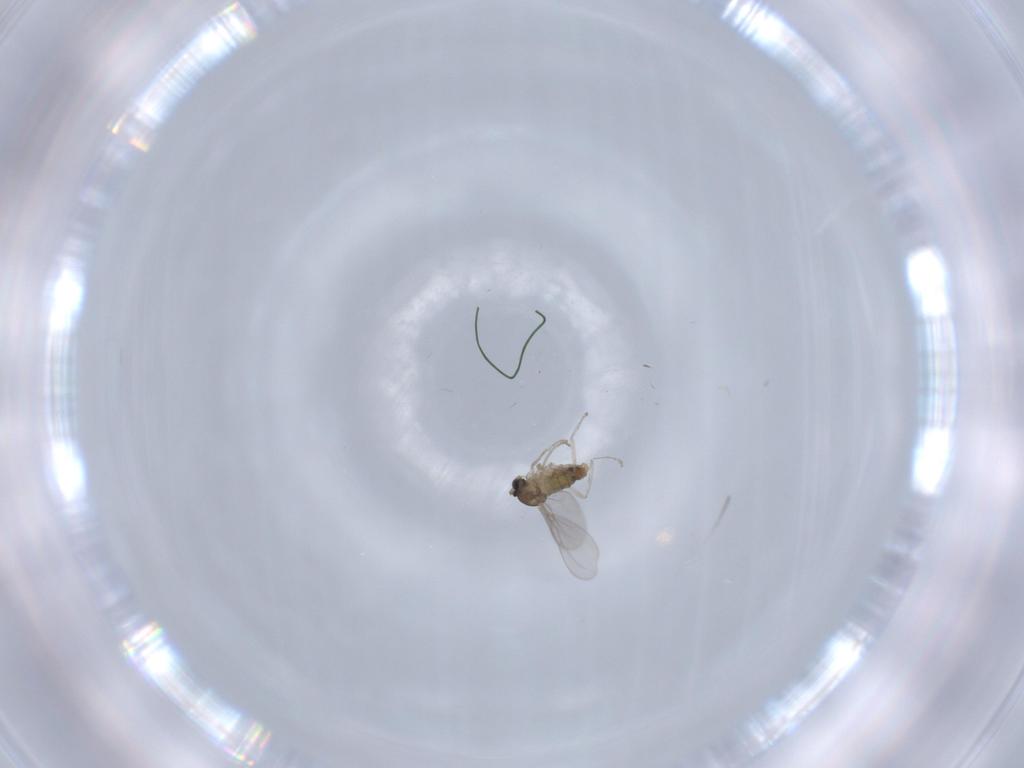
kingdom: Animalia
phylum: Arthropoda
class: Insecta
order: Diptera
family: Cecidomyiidae
